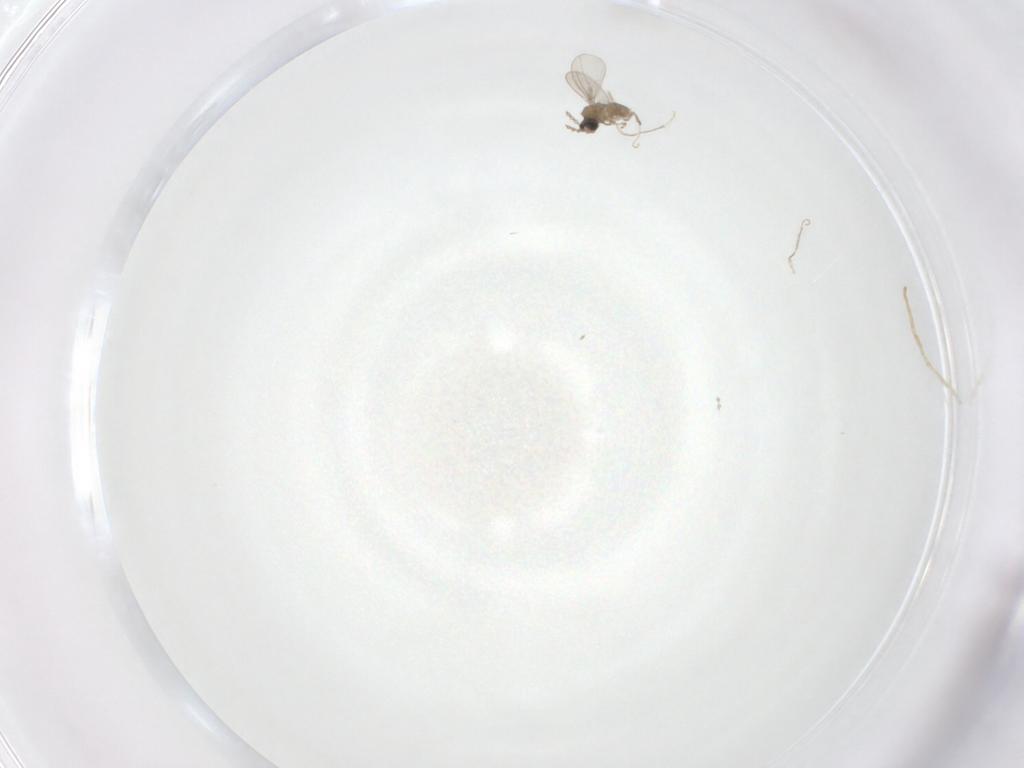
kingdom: Animalia
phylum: Arthropoda
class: Insecta
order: Diptera
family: Chironomidae
